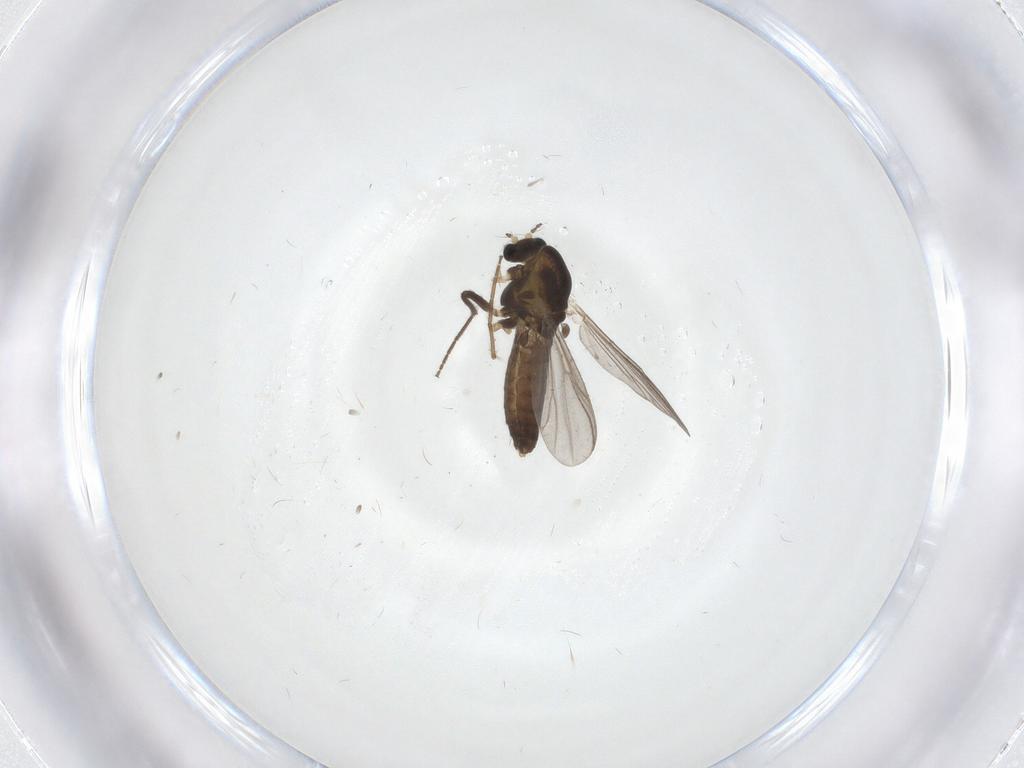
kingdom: Animalia
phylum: Arthropoda
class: Insecta
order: Diptera
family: Chironomidae
